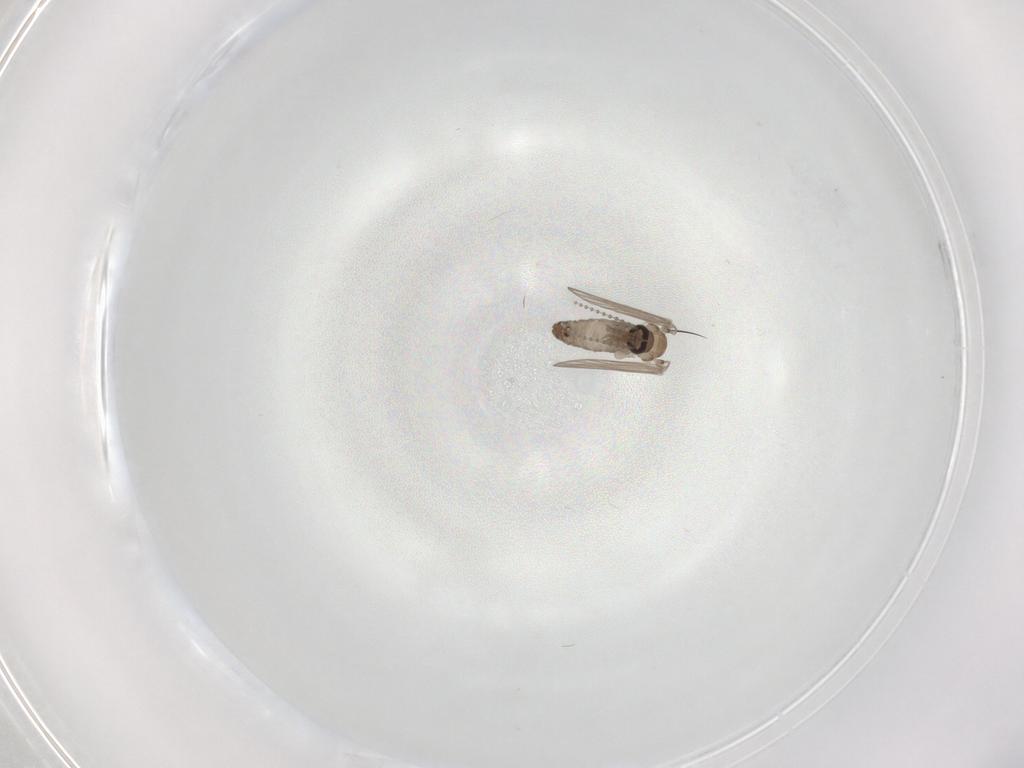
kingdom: Animalia
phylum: Arthropoda
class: Insecta
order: Diptera
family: Psychodidae
